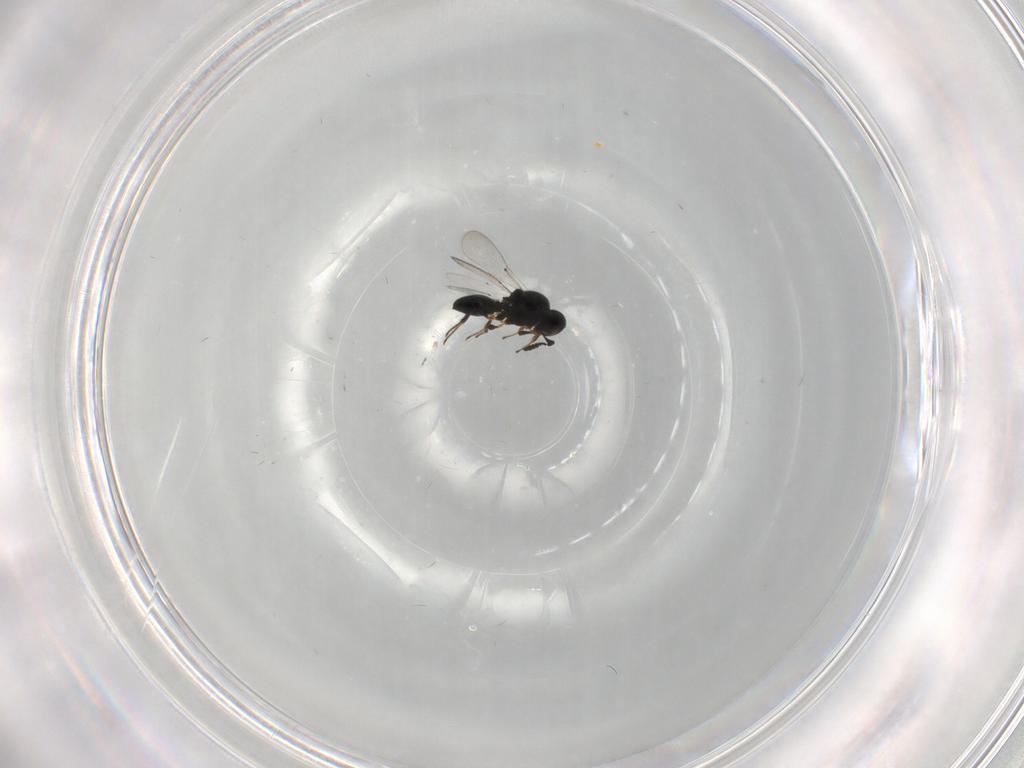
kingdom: Animalia
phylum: Arthropoda
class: Insecta
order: Hymenoptera
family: Platygastridae
